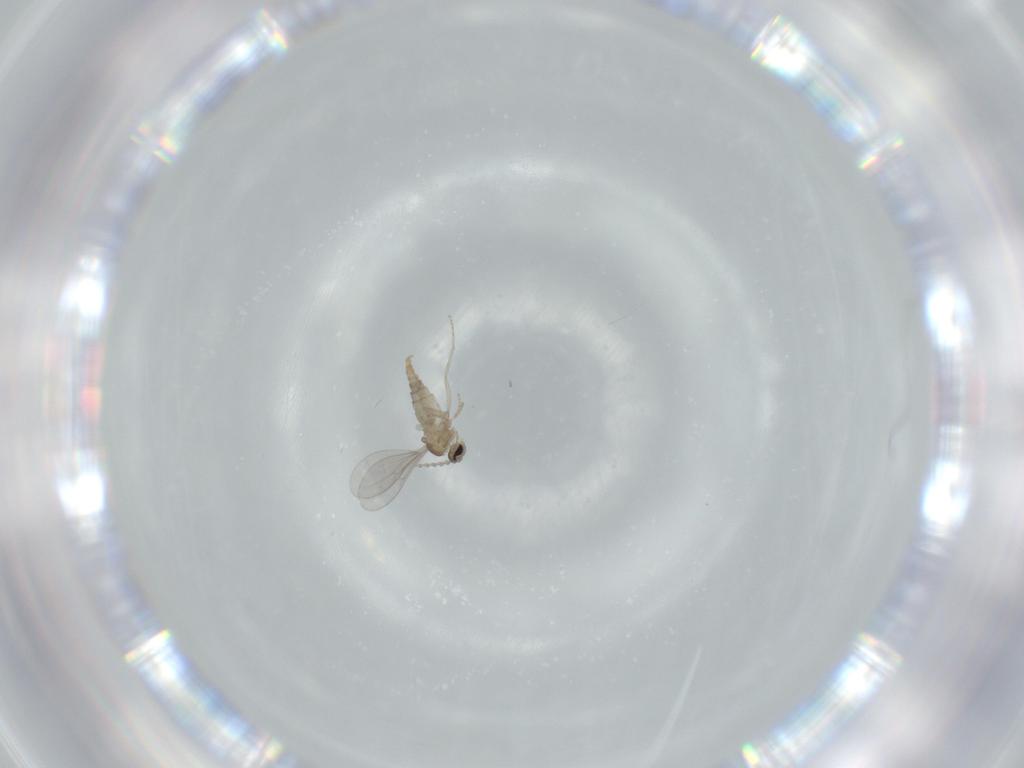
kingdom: Animalia
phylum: Arthropoda
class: Insecta
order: Diptera
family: Cecidomyiidae
